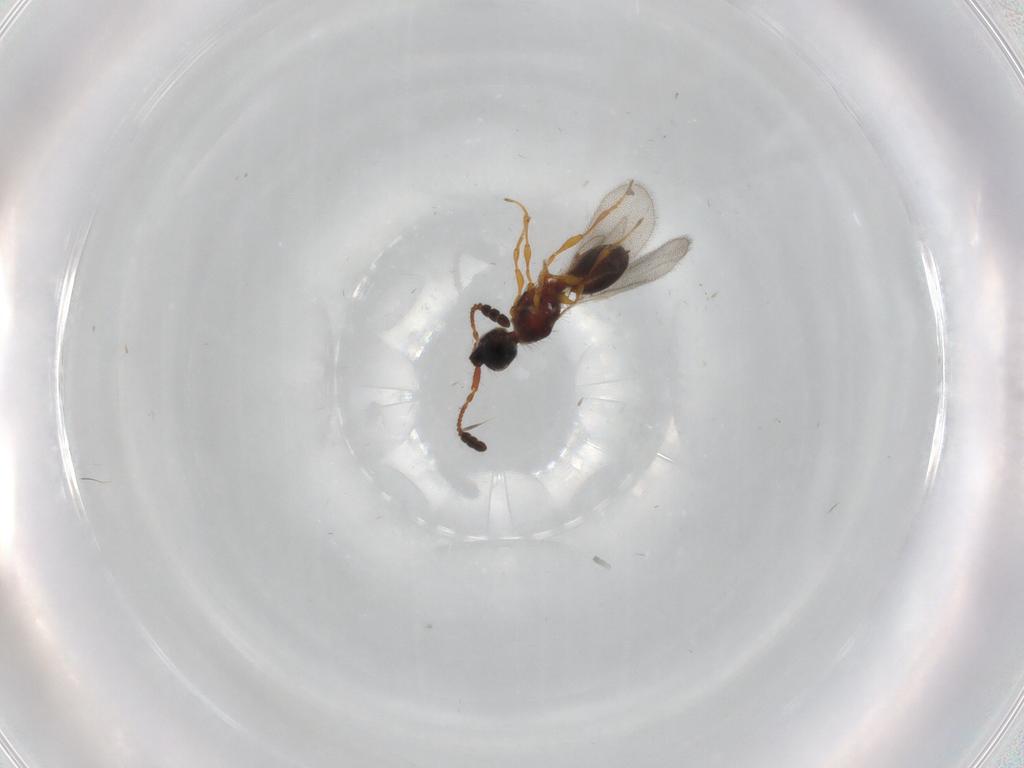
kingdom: Animalia
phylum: Arthropoda
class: Insecta
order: Hymenoptera
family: Diapriidae
